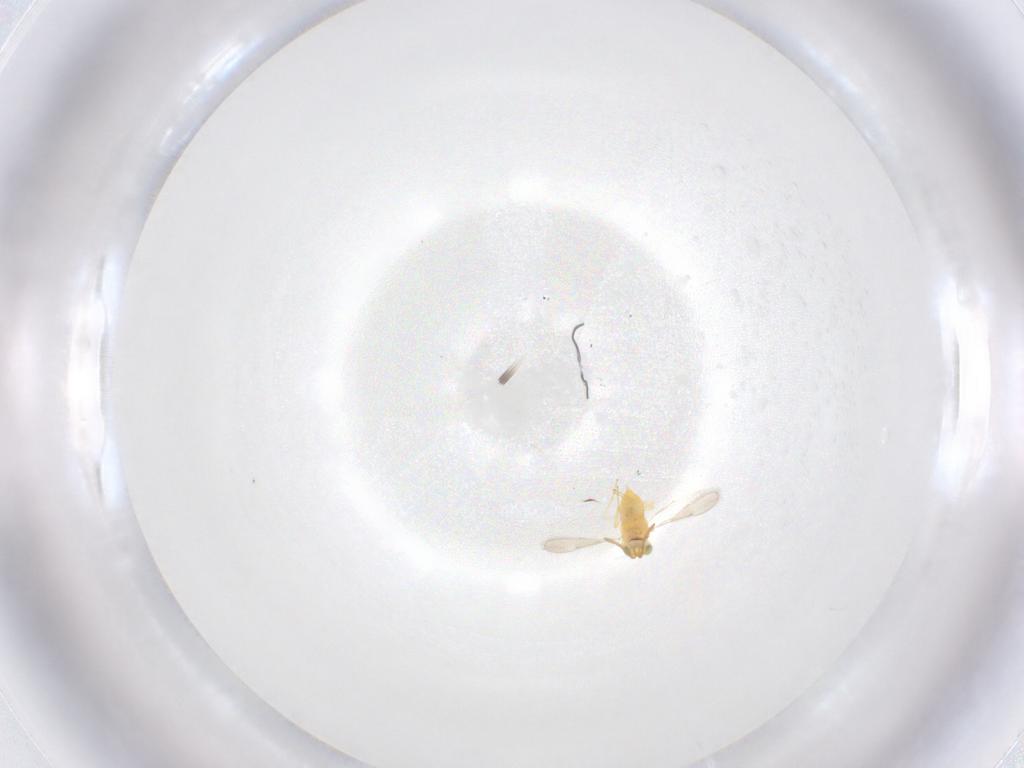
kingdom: Animalia
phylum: Arthropoda
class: Insecta
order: Hymenoptera
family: Aphelinidae
